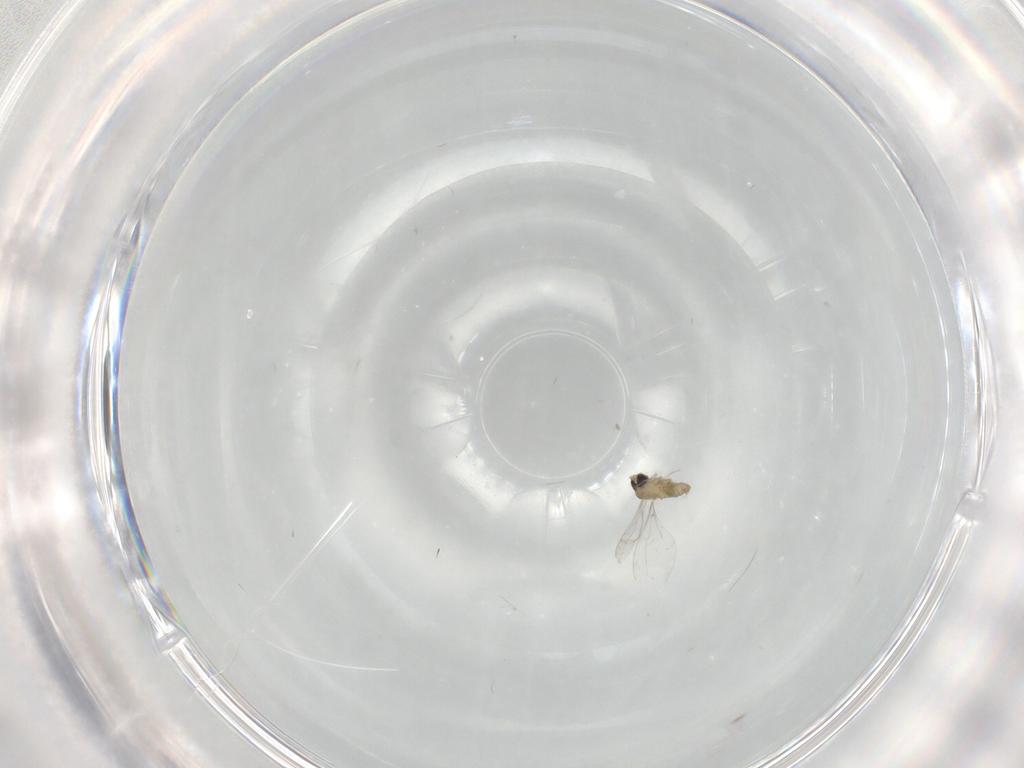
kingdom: Animalia
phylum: Arthropoda
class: Insecta
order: Diptera
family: Cecidomyiidae
